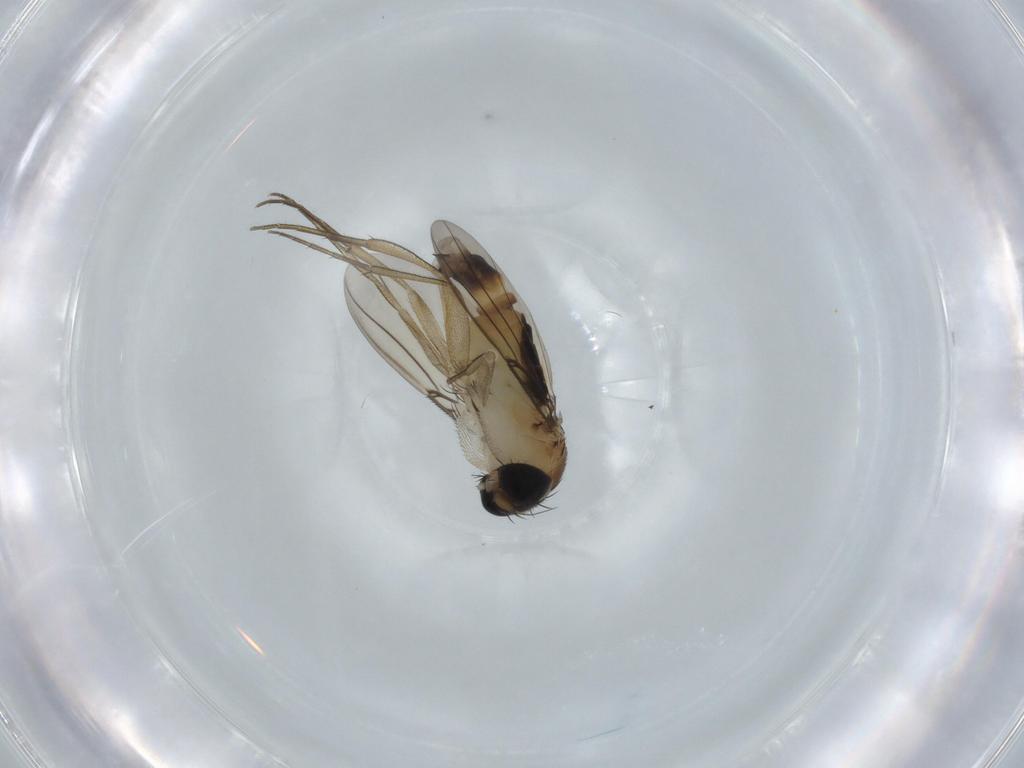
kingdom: Animalia
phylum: Arthropoda
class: Insecta
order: Diptera
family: Phoridae
